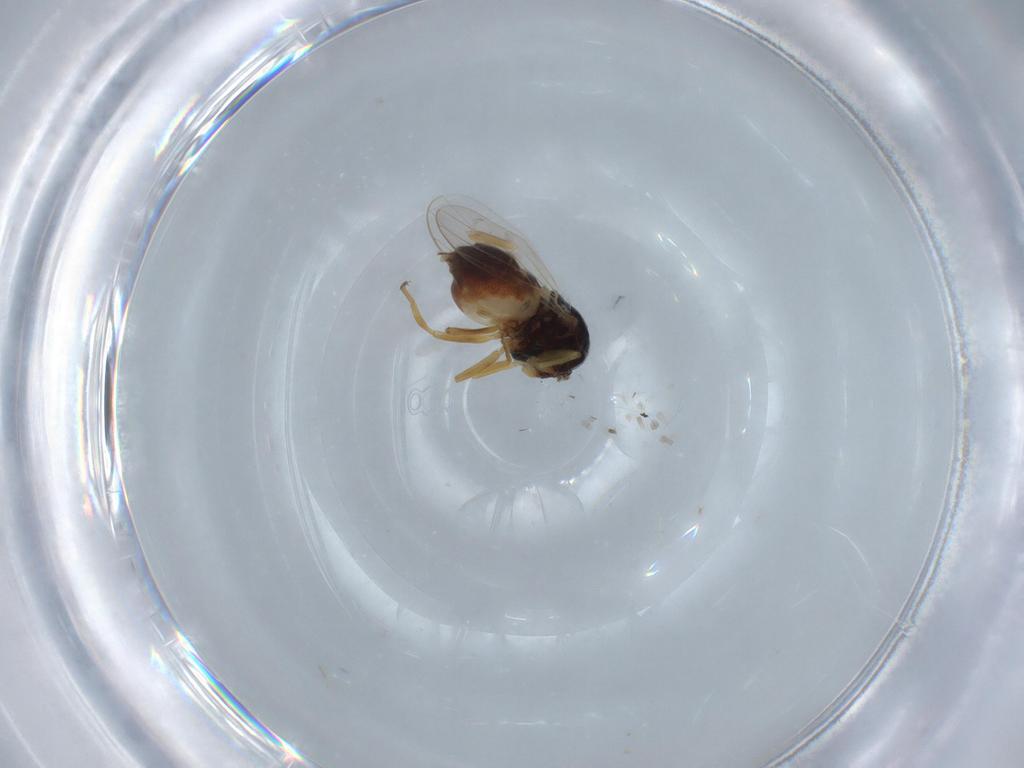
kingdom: Animalia
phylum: Arthropoda
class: Insecta
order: Diptera
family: Chloropidae
